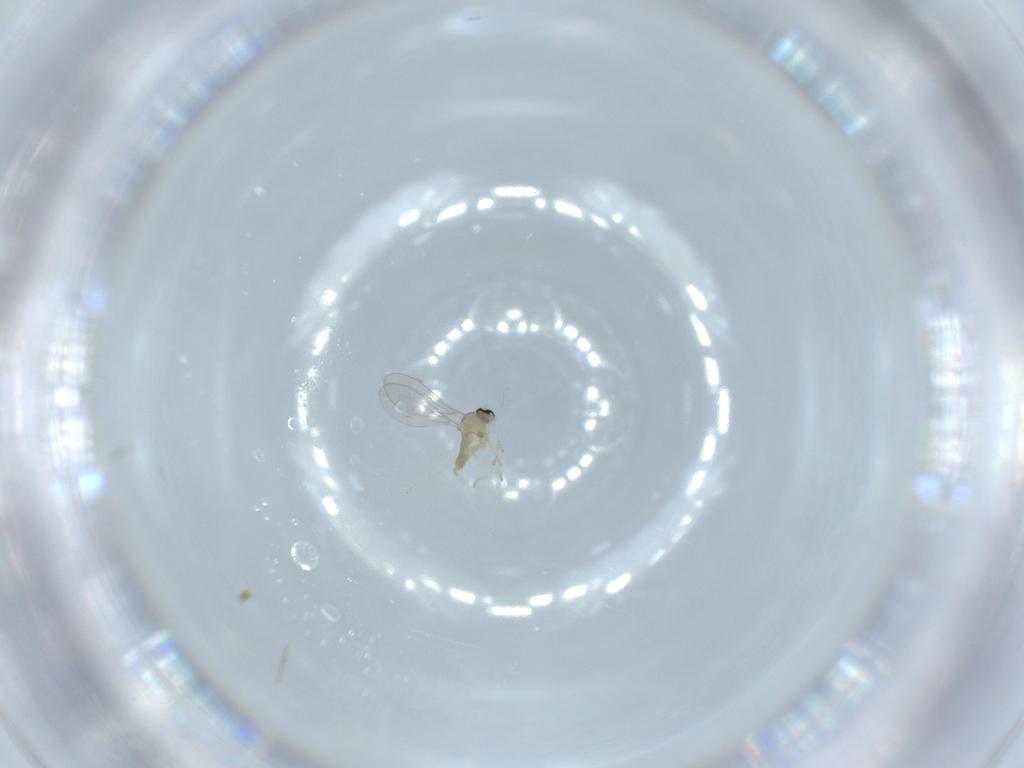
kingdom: Animalia
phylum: Arthropoda
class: Insecta
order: Diptera
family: Cecidomyiidae
